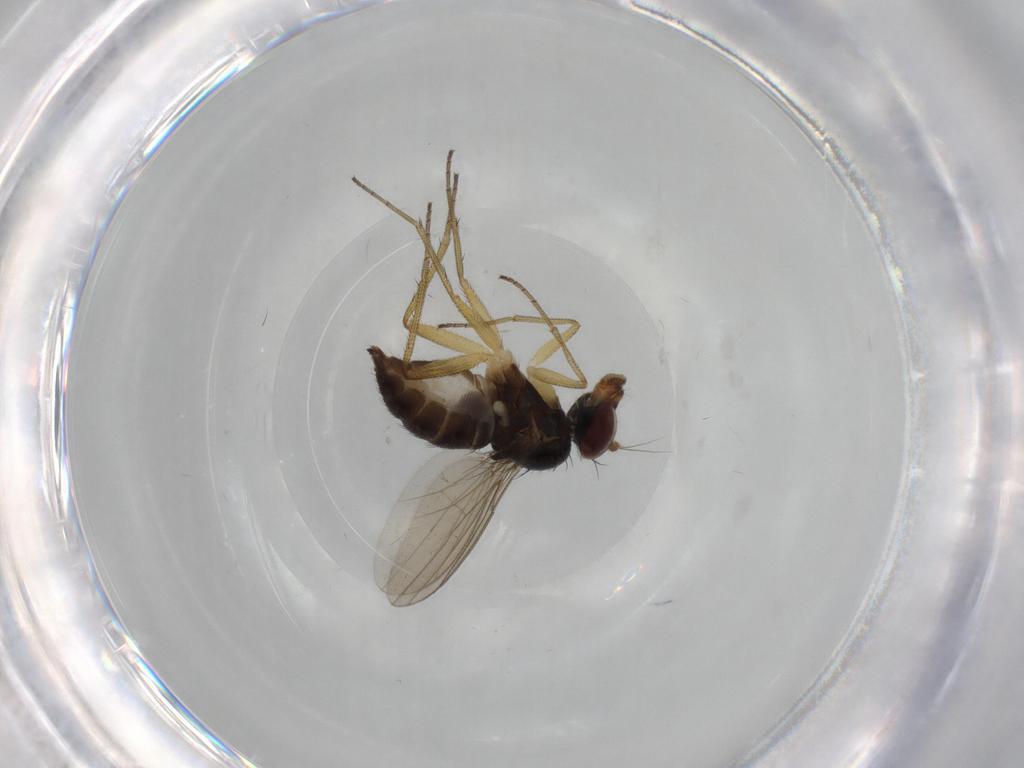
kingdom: Animalia
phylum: Arthropoda
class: Insecta
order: Diptera
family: Dolichopodidae
